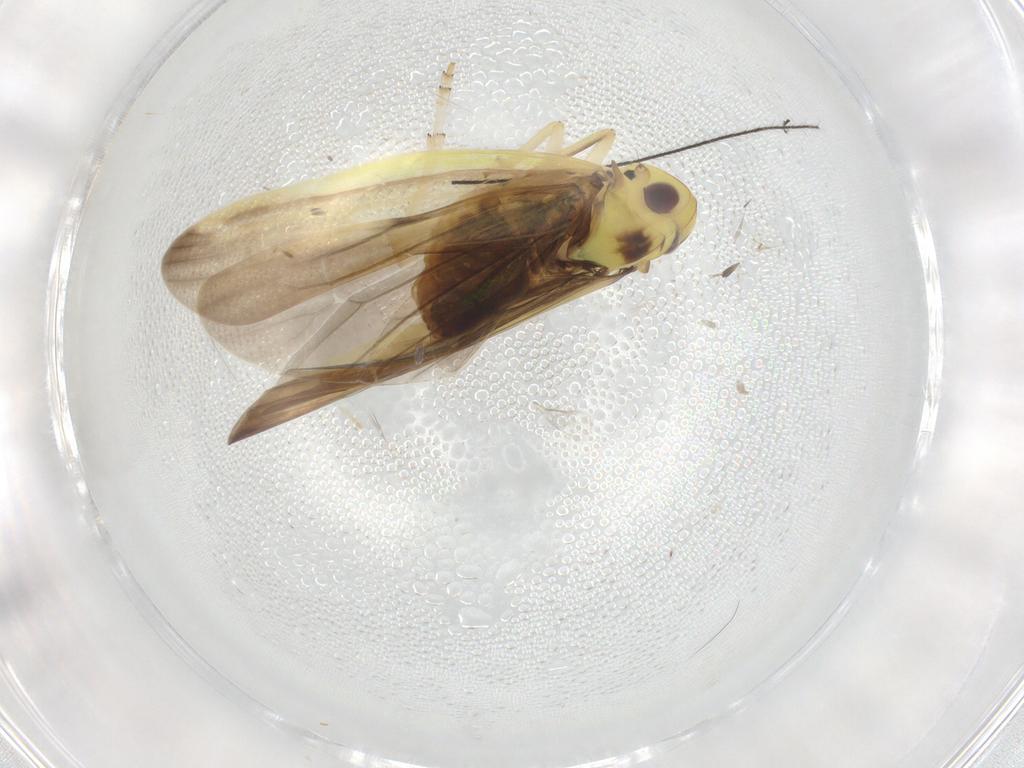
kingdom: Animalia
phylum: Arthropoda
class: Insecta
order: Hemiptera
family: Achilidae
